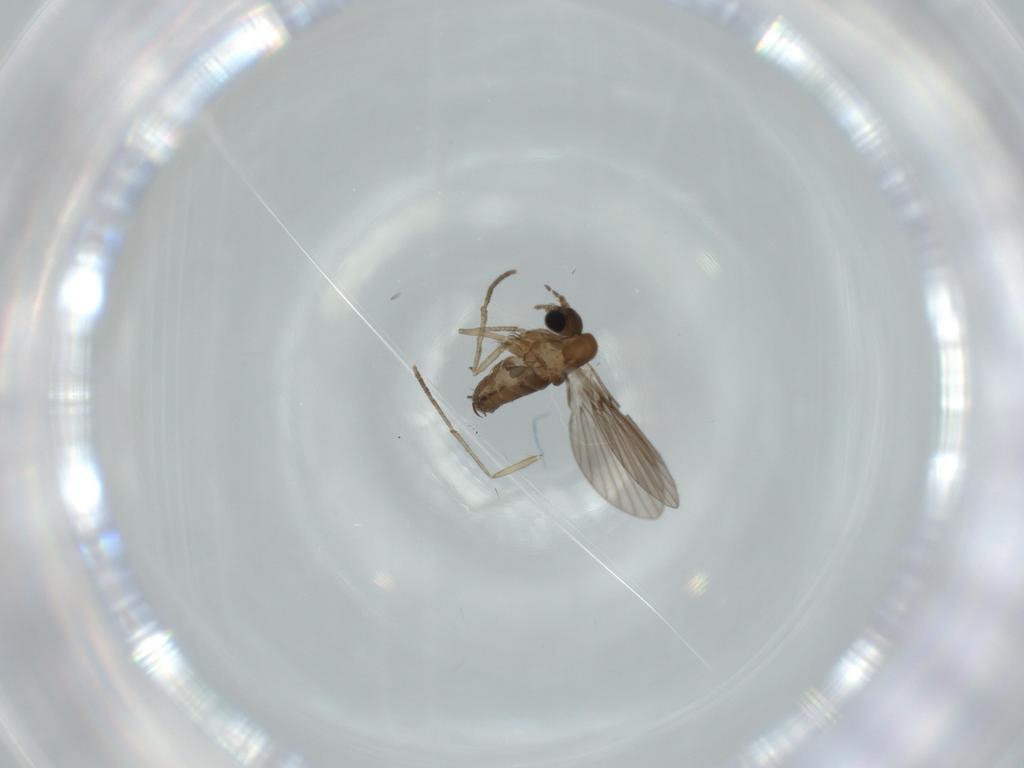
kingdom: Animalia
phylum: Arthropoda
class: Insecta
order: Diptera
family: Psychodidae
